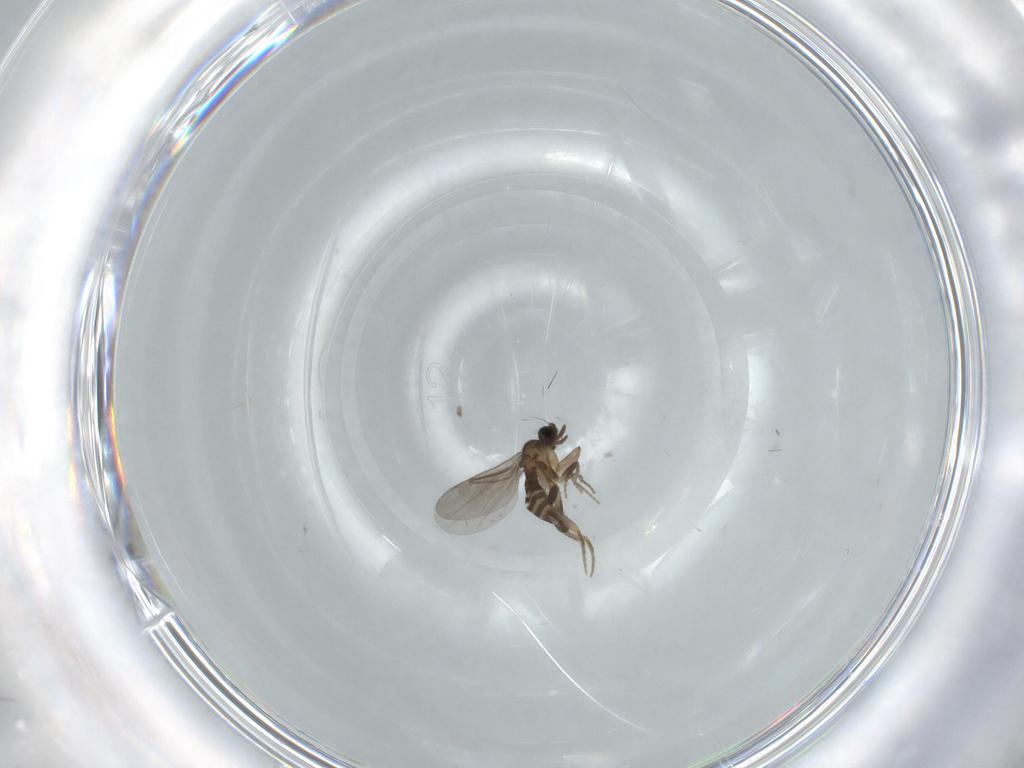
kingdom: Animalia
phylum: Arthropoda
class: Insecta
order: Diptera
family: Chironomidae
